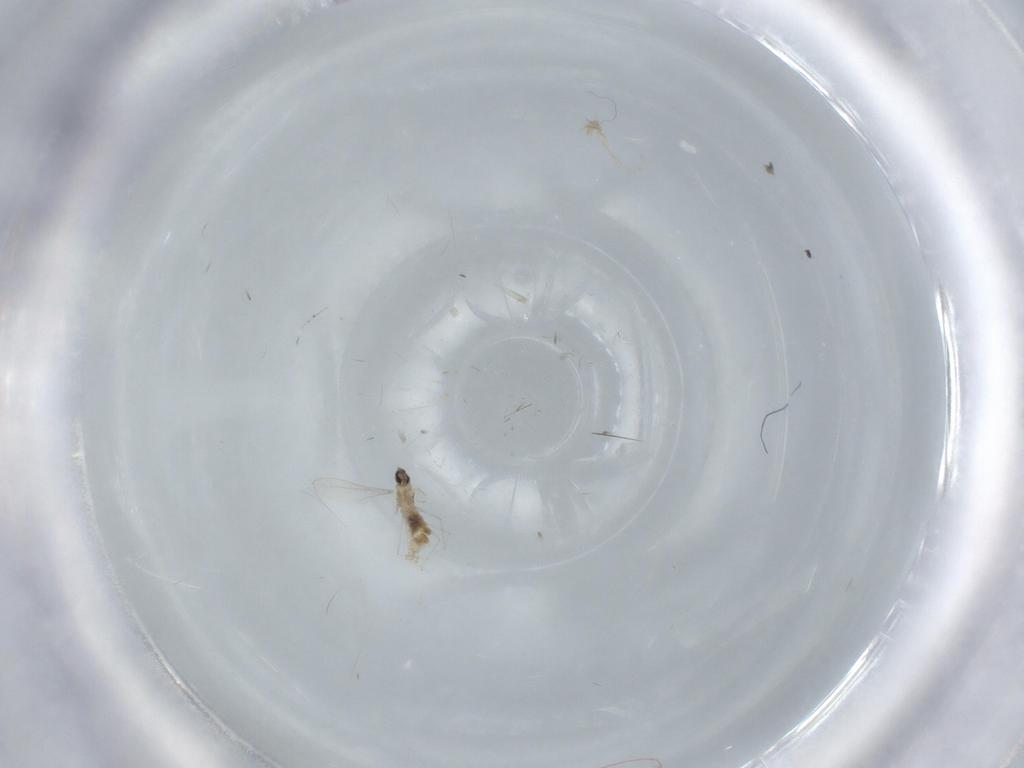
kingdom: Animalia
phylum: Arthropoda
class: Insecta
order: Diptera
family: Cecidomyiidae
